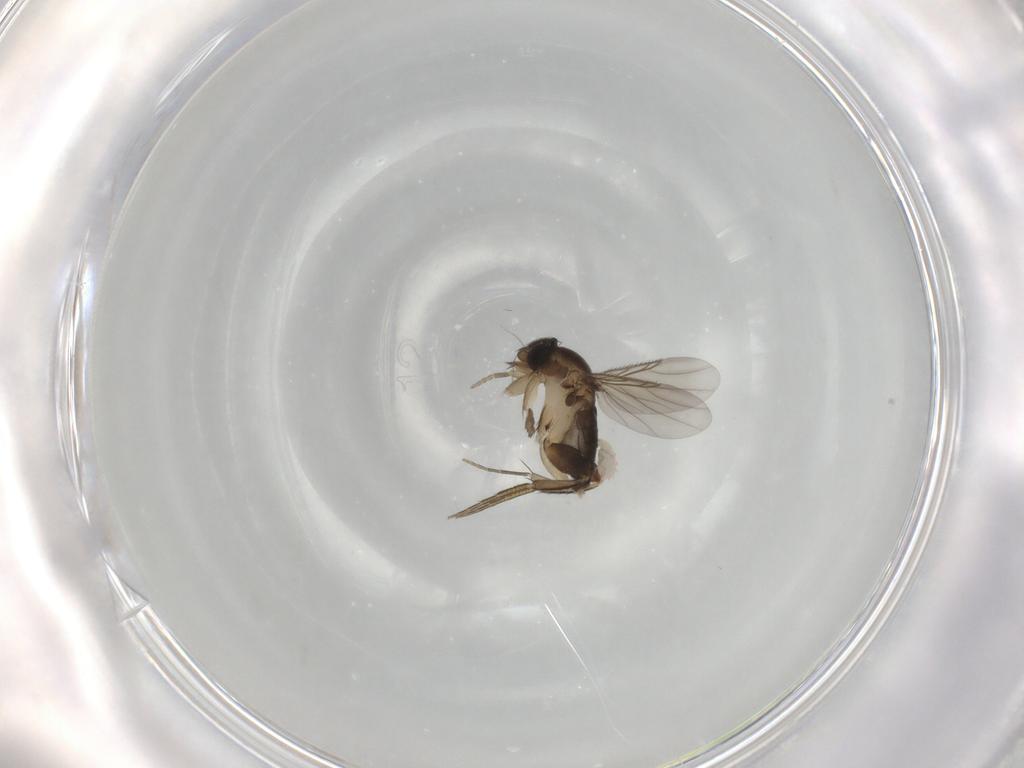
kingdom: Animalia
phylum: Arthropoda
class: Insecta
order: Diptera
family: Phoridae
